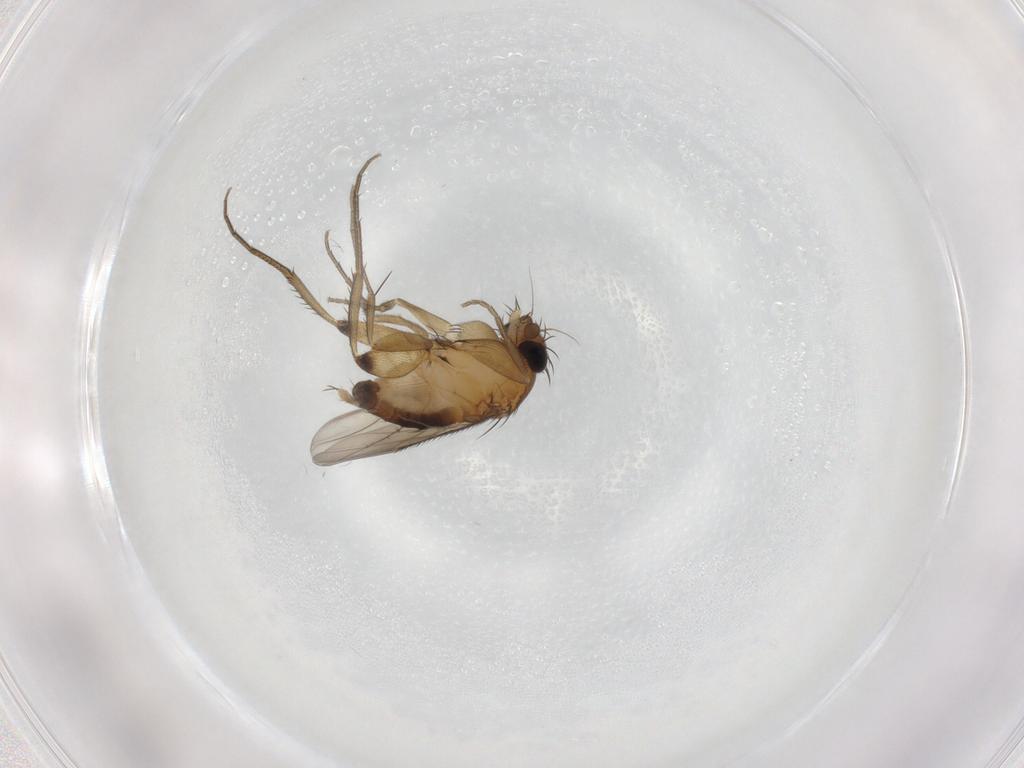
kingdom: Animalia
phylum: Arthropoda
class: Insecta
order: Diptera
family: Phoridae
